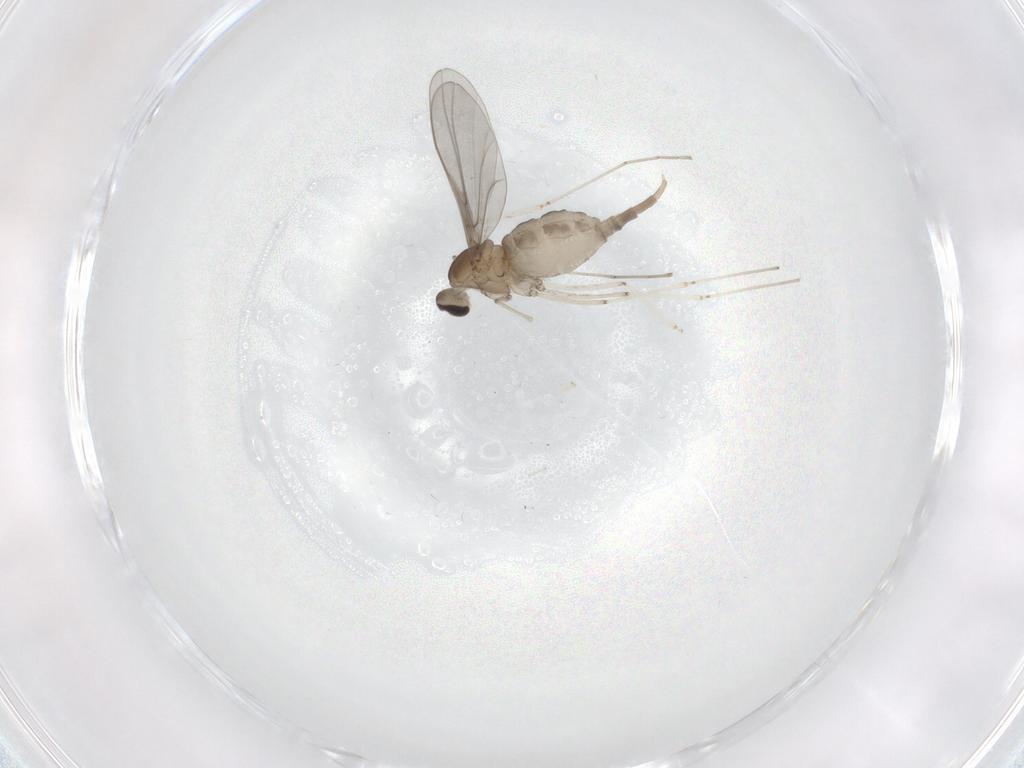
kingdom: Animalia
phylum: Arthropoda
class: Insecta
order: Diptera
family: Cecidomyiidae
